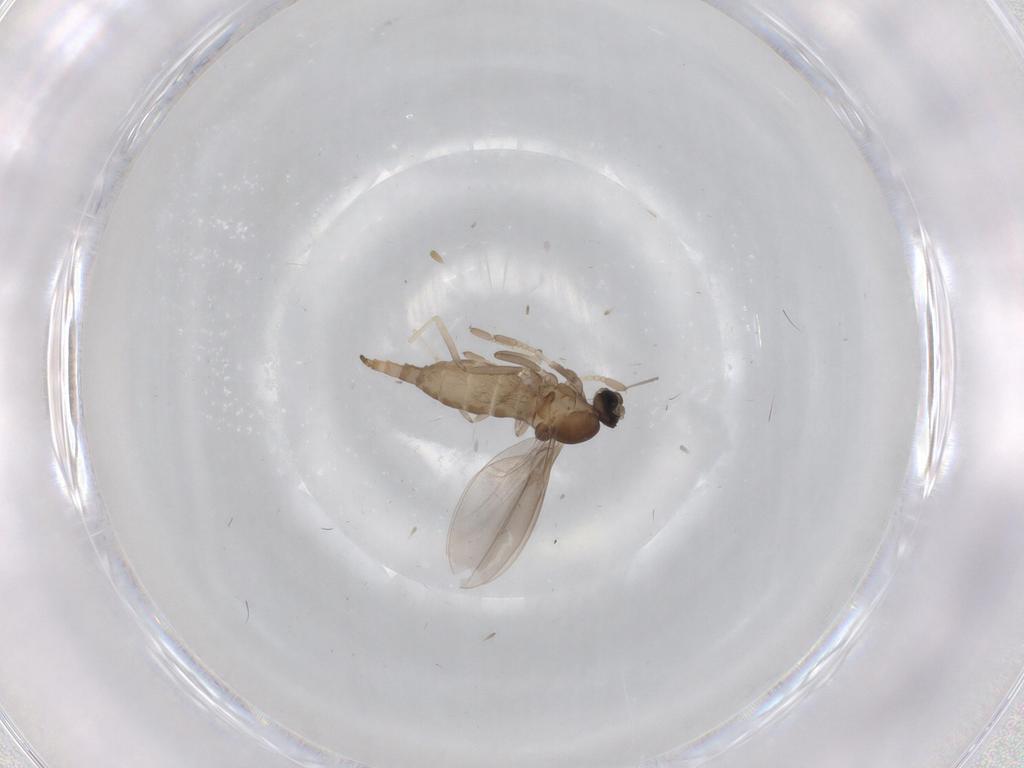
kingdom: Animalia
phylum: Arthropoda
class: Insecta
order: Diptera
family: Cecidomyiidae
